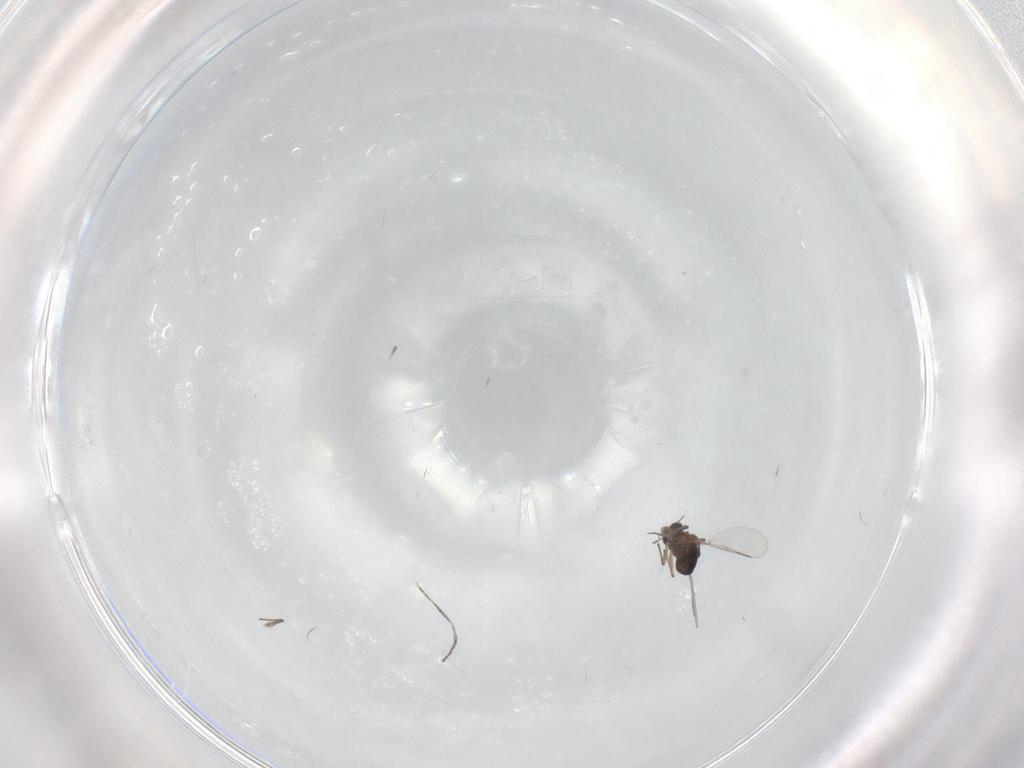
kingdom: Animalia
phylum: Arthropoda
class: Insecta
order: Diptera
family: Chironomidae
